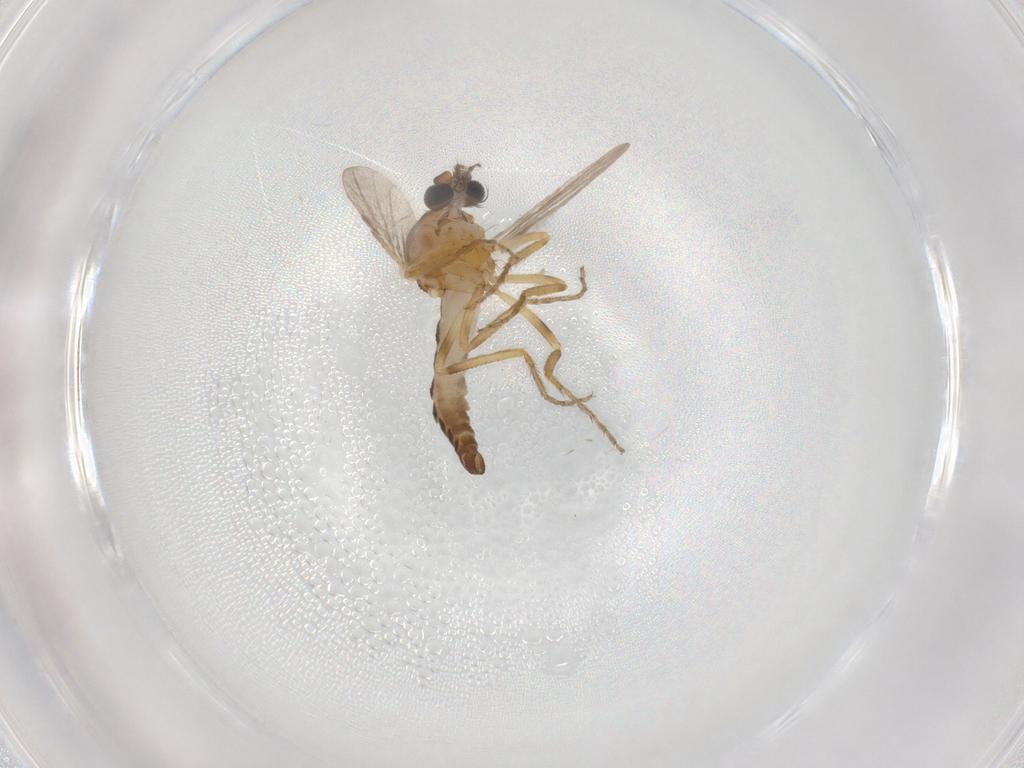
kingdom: Animalia
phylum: Arthropoda
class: Insecta
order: Diptera
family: Ceratopogonidae
